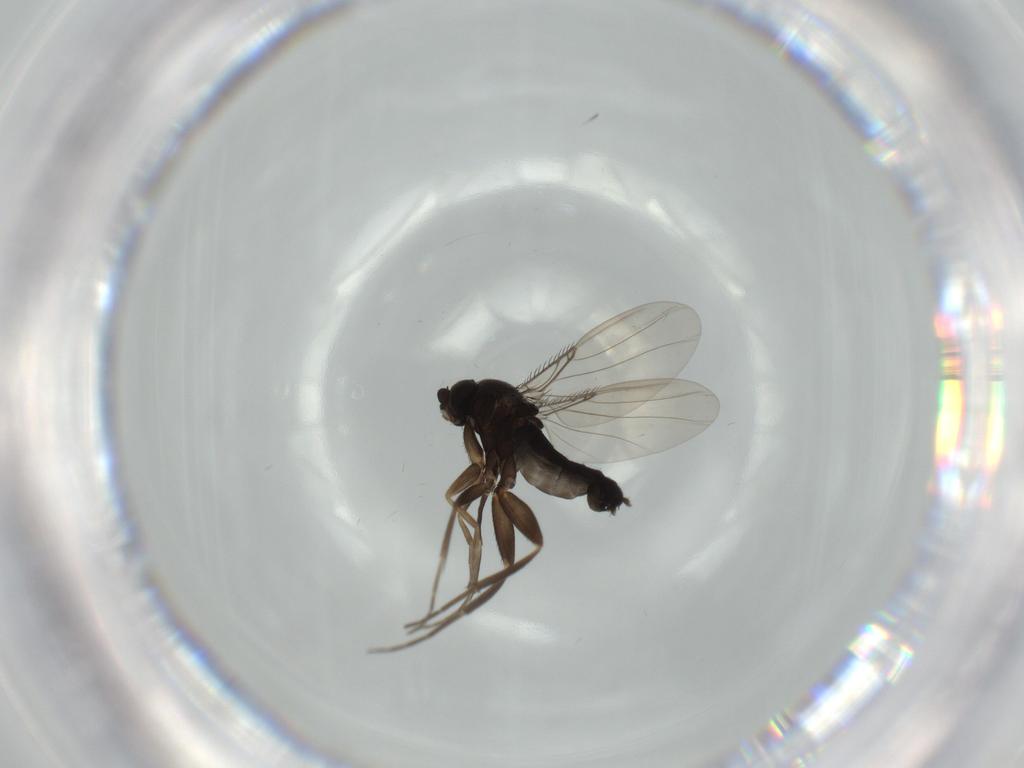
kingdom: Animalia
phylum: Arthropoda
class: Insecta
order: Diptera
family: Phoridae
